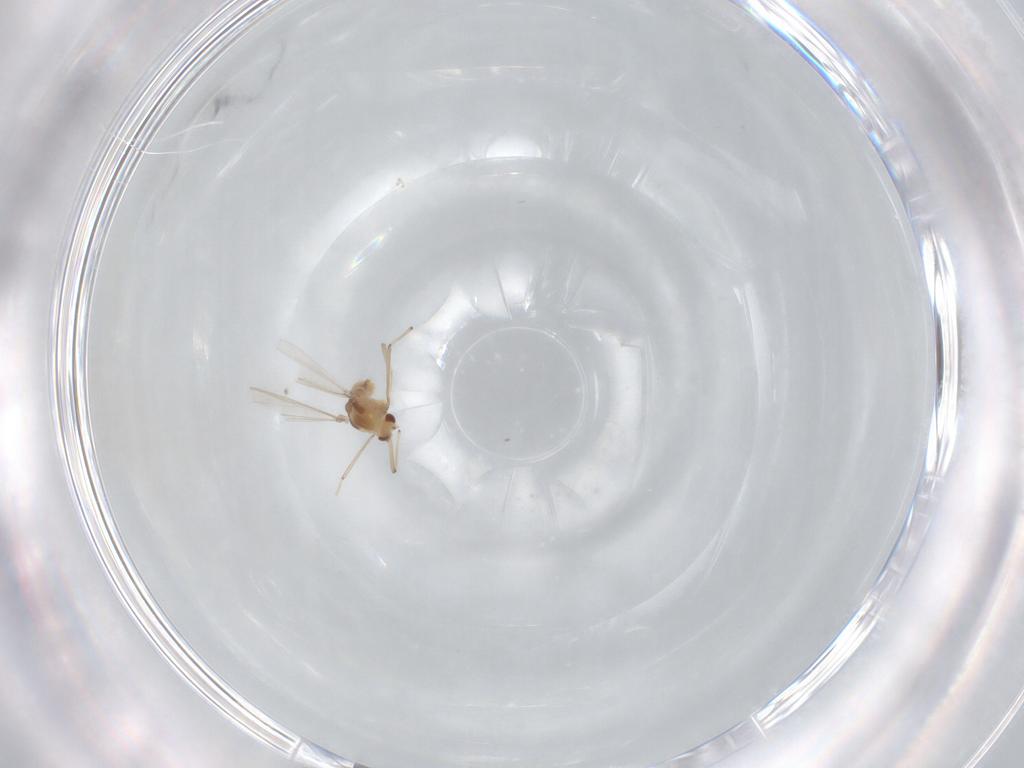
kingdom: Animalia
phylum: Arthropoda
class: Insecta
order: Diptera
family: Chironomidae
